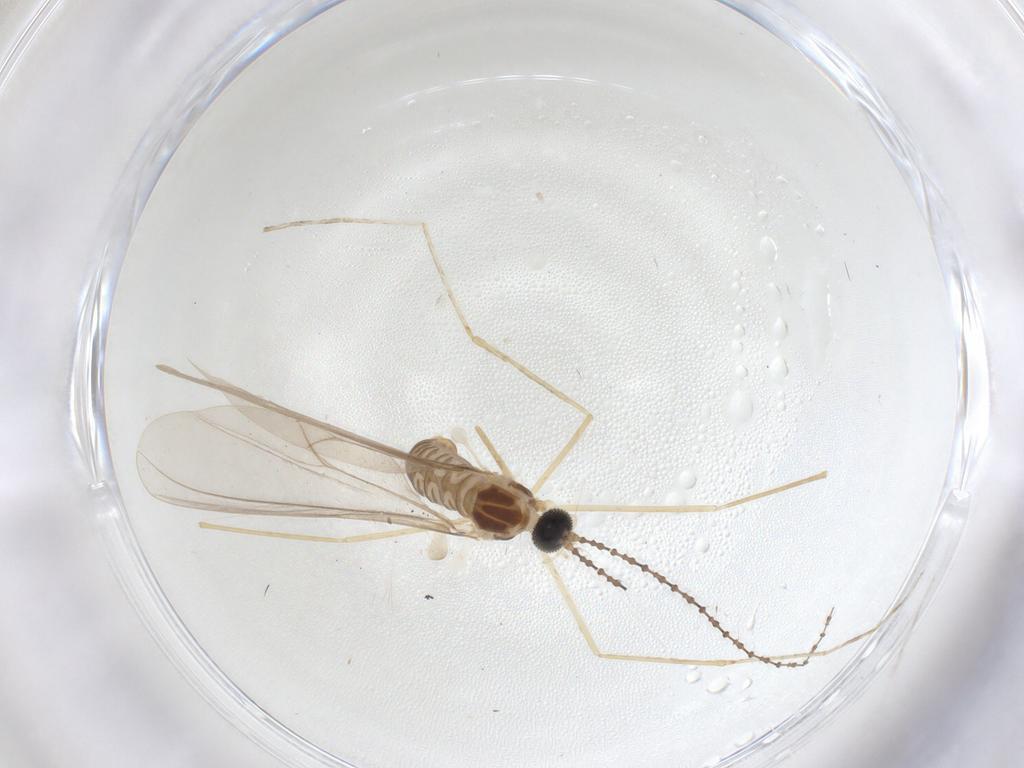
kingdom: Animalia
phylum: Arthropoda
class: Insecta
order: Diptera
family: Cecidomyiidae
